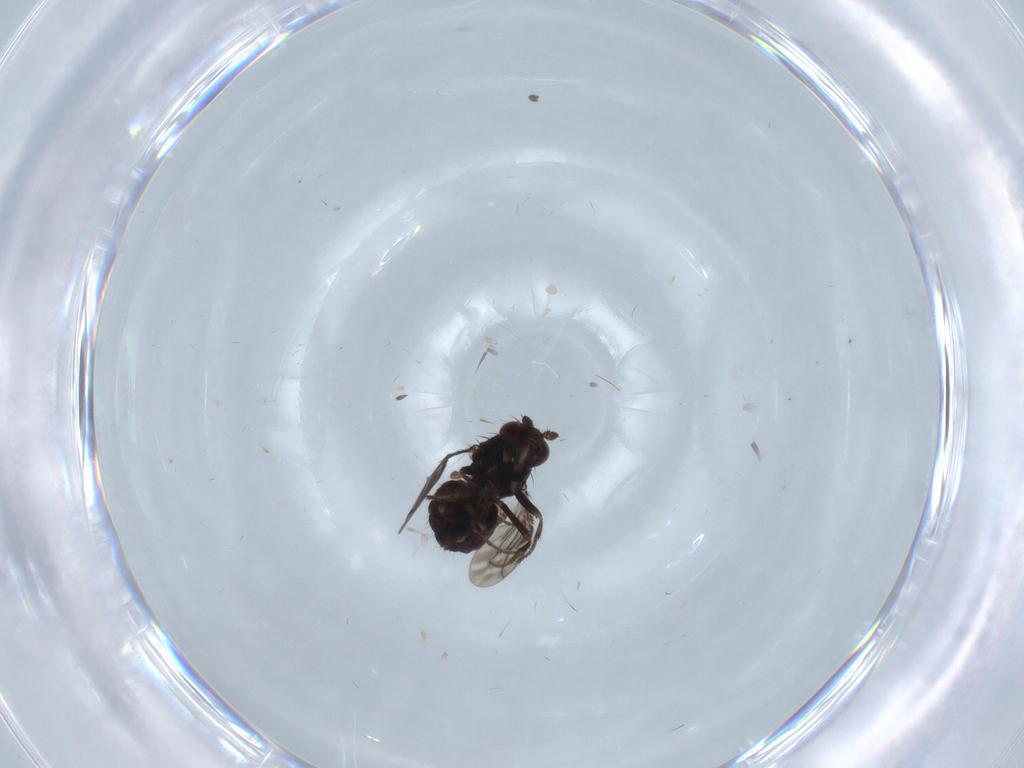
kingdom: Animalia
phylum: Arthropoda
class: Insecta
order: Diptera
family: Sphaeroceridae
